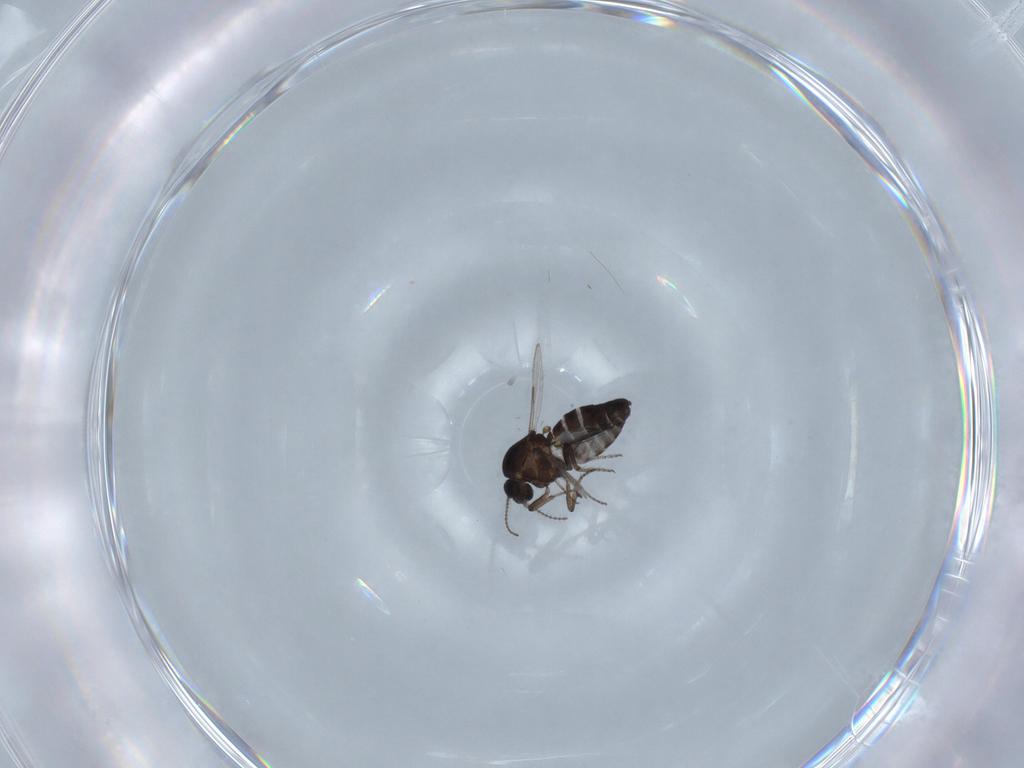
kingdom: Animalia
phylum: Arthropoda
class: Insecta
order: Diptera
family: Ceratopogonidae
